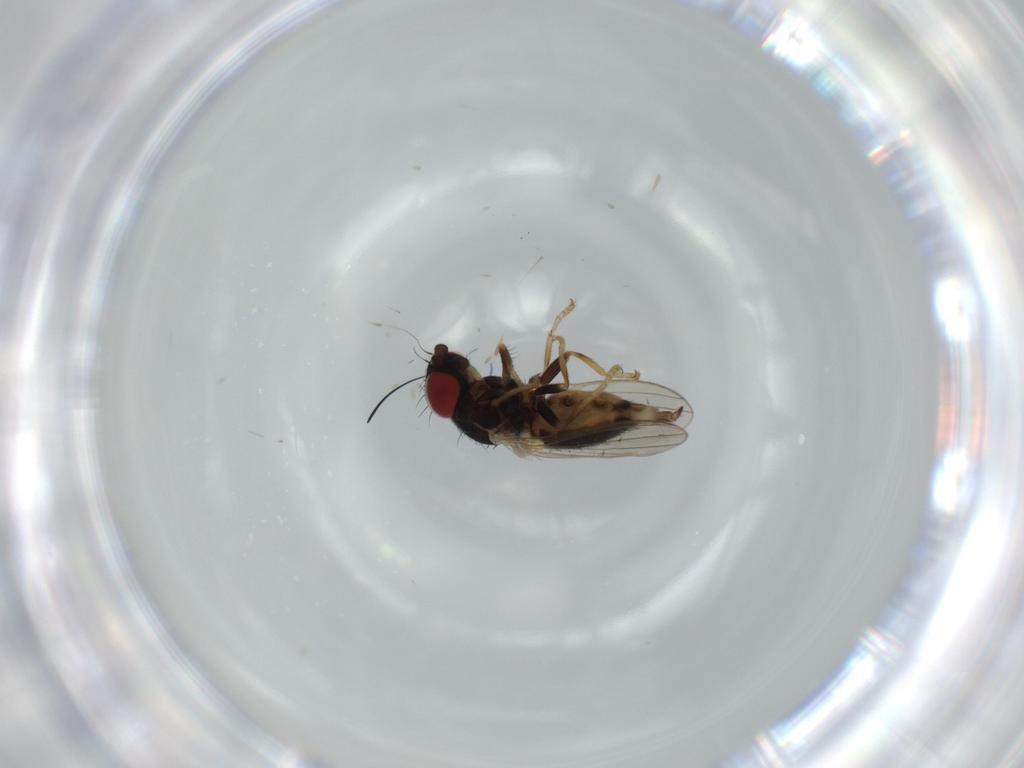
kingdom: Animalia
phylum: Arthropoda
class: Insecta
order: Diptera
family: Chamaemyiidae
